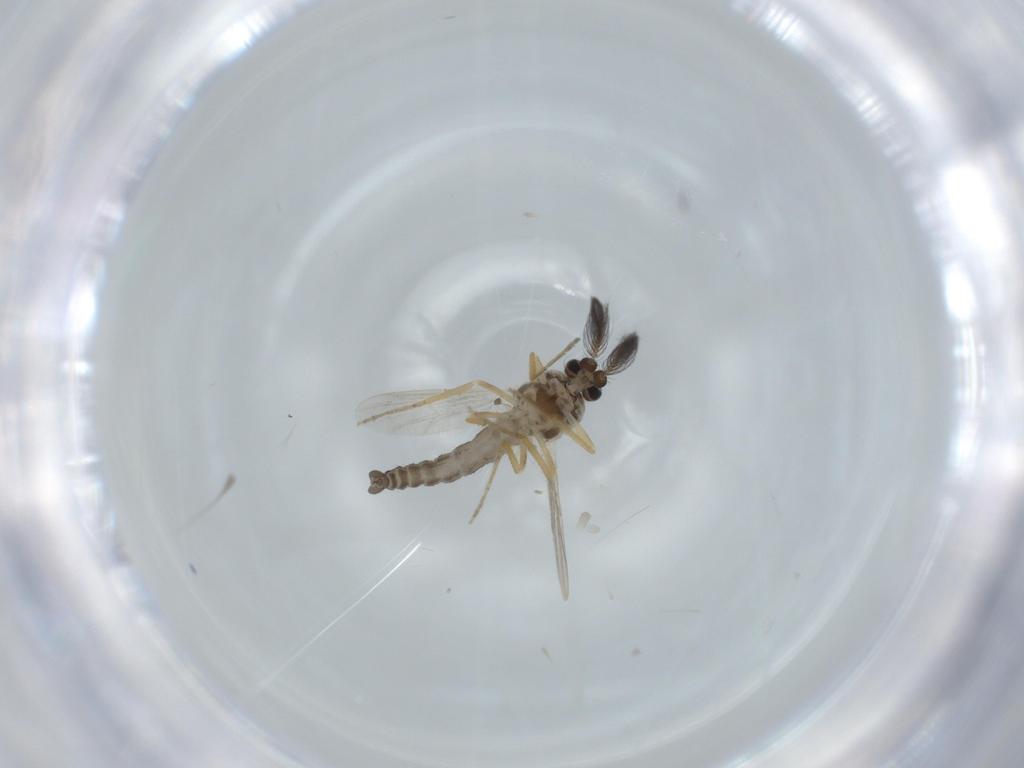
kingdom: Animalia
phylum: Arthropoda
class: Insecta
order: Diptera
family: Ceratopogonidae
